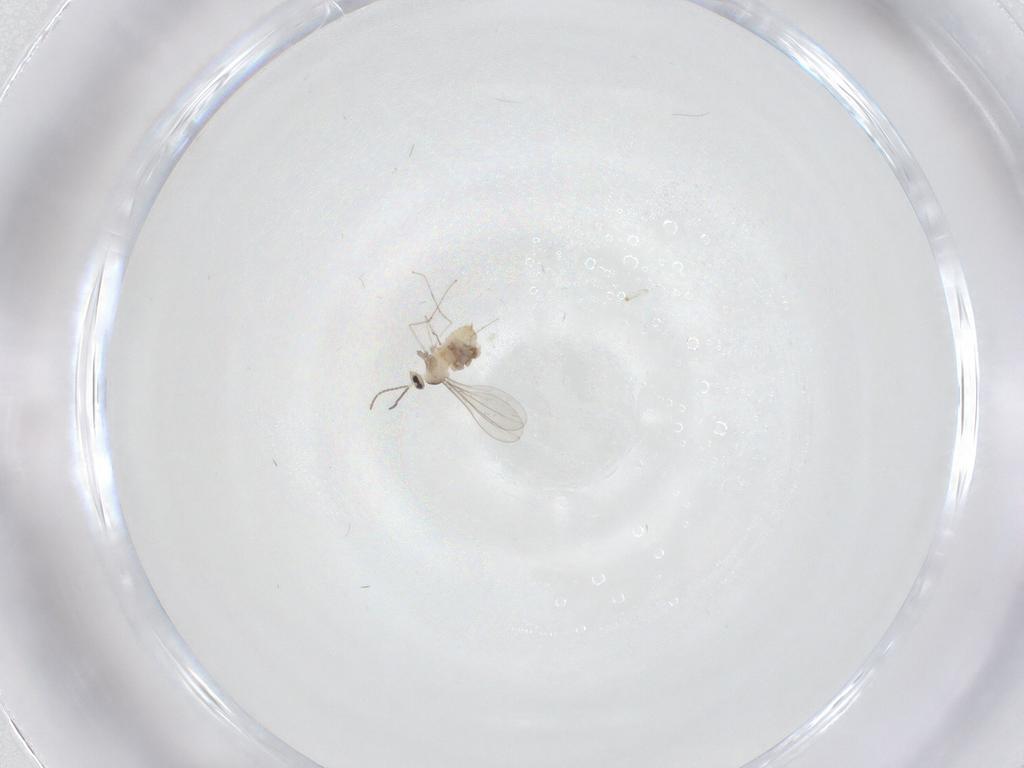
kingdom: Animalia
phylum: Arthropoda
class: Insecta
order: Diptera
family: Cecidomyiidae
